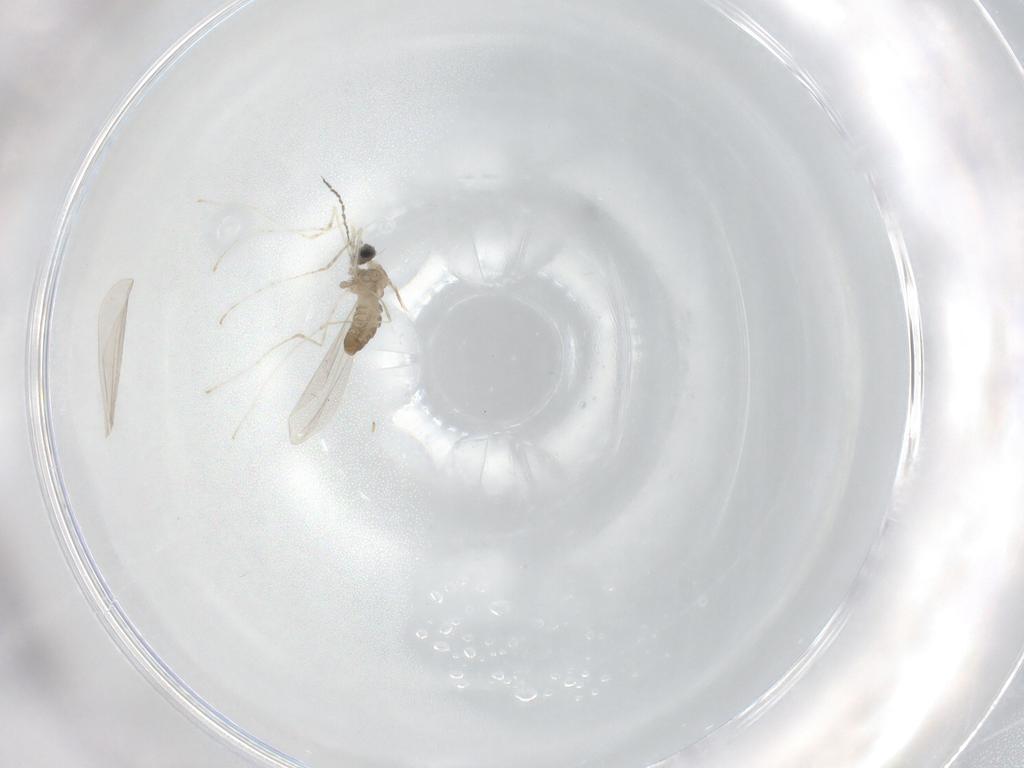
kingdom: Animalia
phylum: Arthropoda
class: Insecta
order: Diptera
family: Cecidomyiidae
